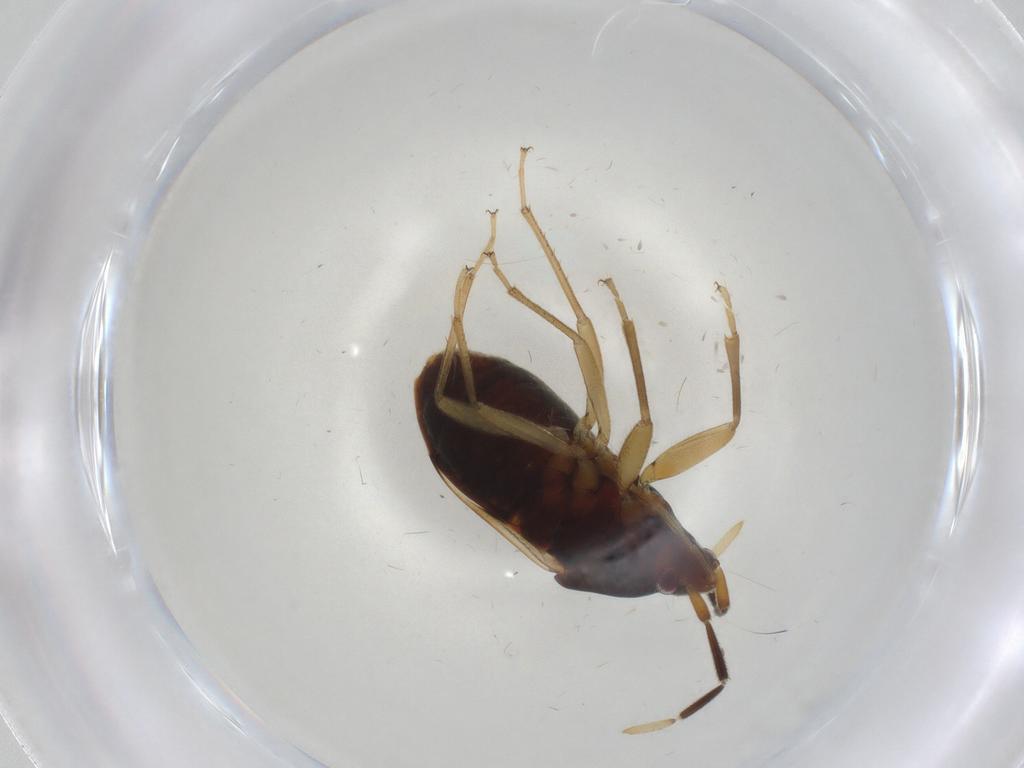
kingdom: Animalia
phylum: Arthropoda
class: Insecta
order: Hemiptera
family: Rhyparochromidae
